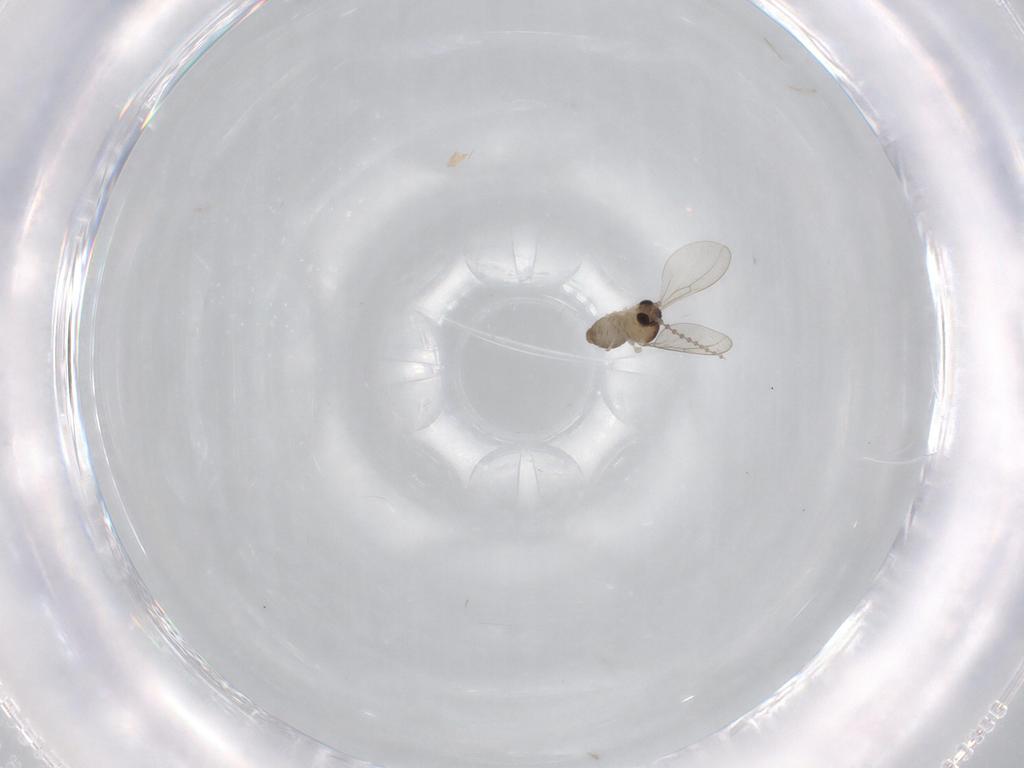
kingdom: Animalia
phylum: Arthropoda
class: Insecta
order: Diptera
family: Cecidomyiidae
